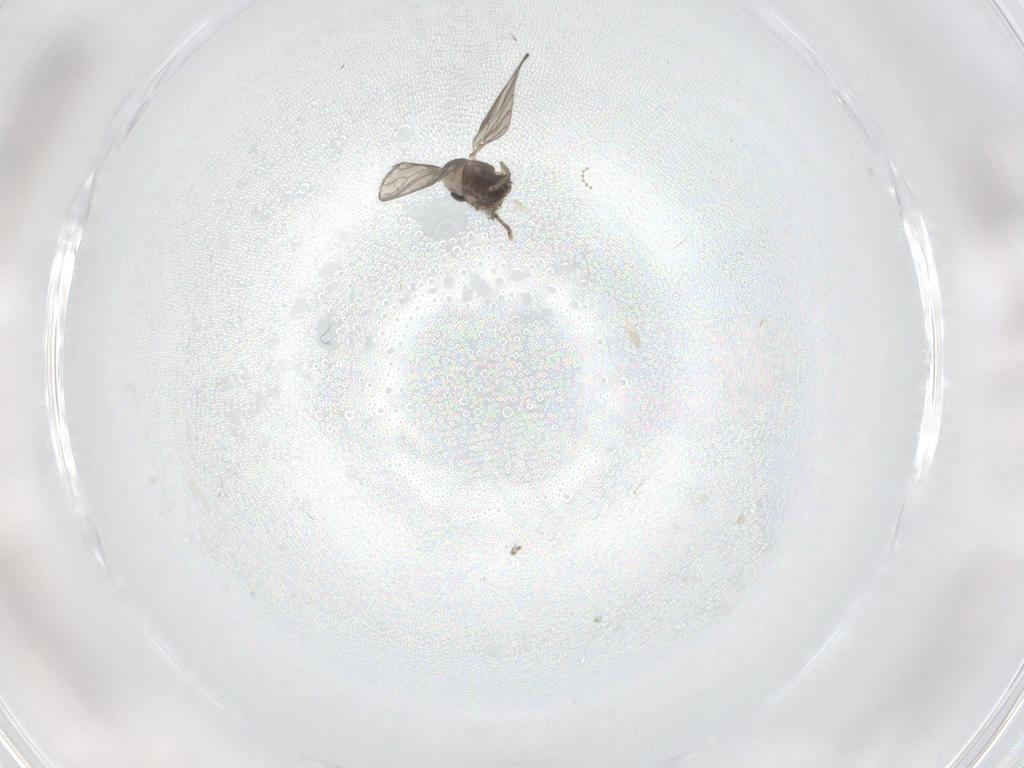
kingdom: Animalia
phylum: Arthropoda
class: Insecta
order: Diptera
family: Cecidomyiidae
